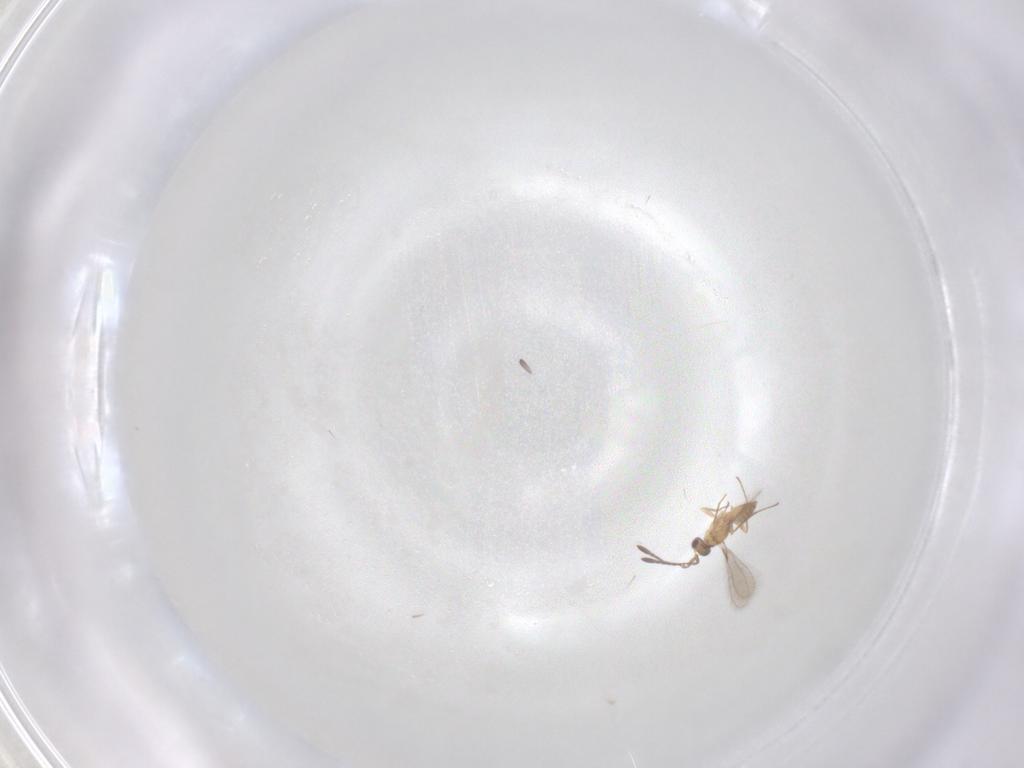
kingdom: Animalia
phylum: Arthropoda
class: Insecta
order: Hymenoptera
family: Mymaridae
